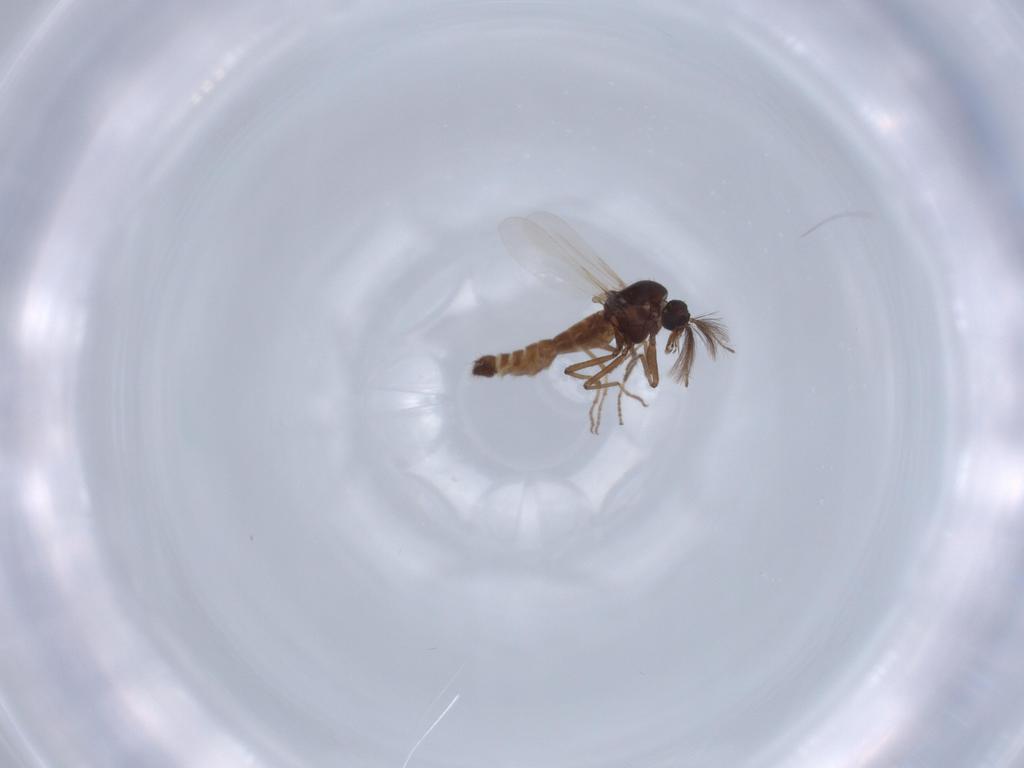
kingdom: Animalia
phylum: Arthropoda
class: Insecta
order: Diptera
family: Ceratopogonidae
